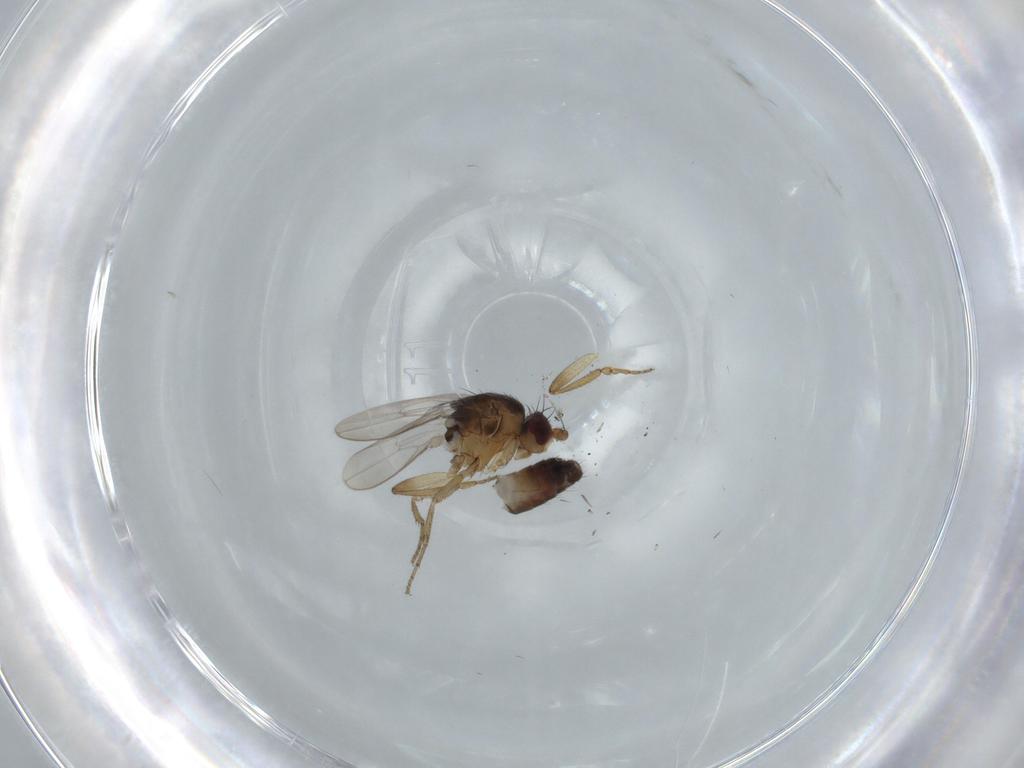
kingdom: Animalia
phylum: Arthropoda
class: Insecta
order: Diptera
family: Sphaeroceridae
